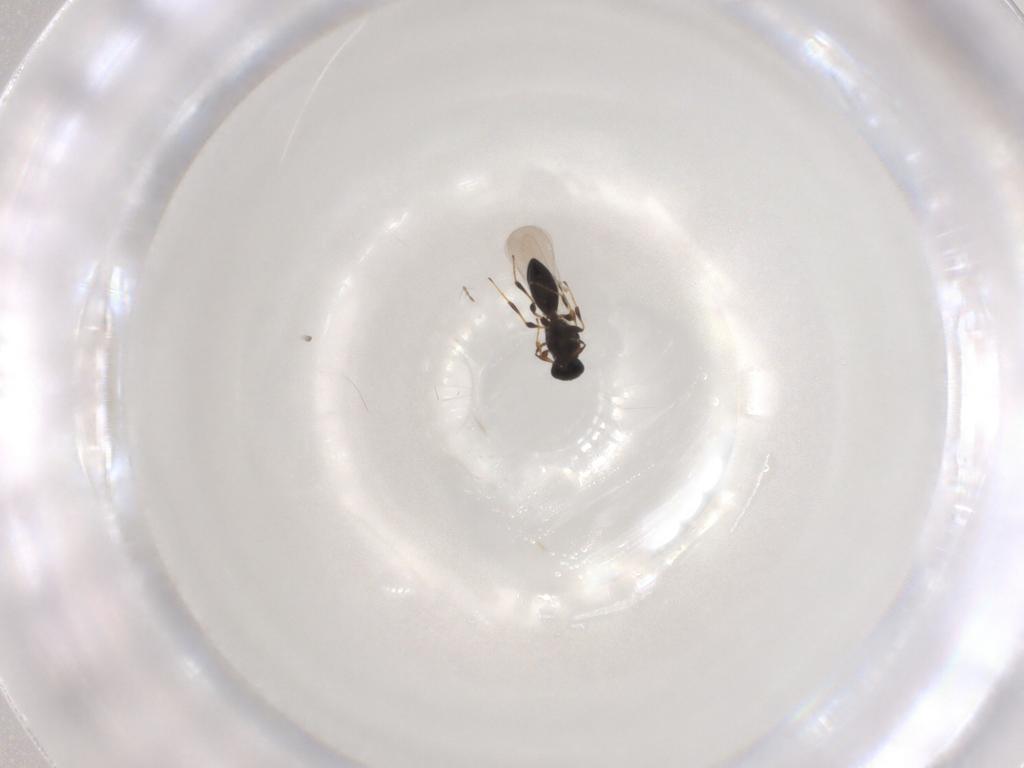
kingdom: Animalia
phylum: Arthropoda
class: Insecta
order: Hymenoptera
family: Platygastridae
